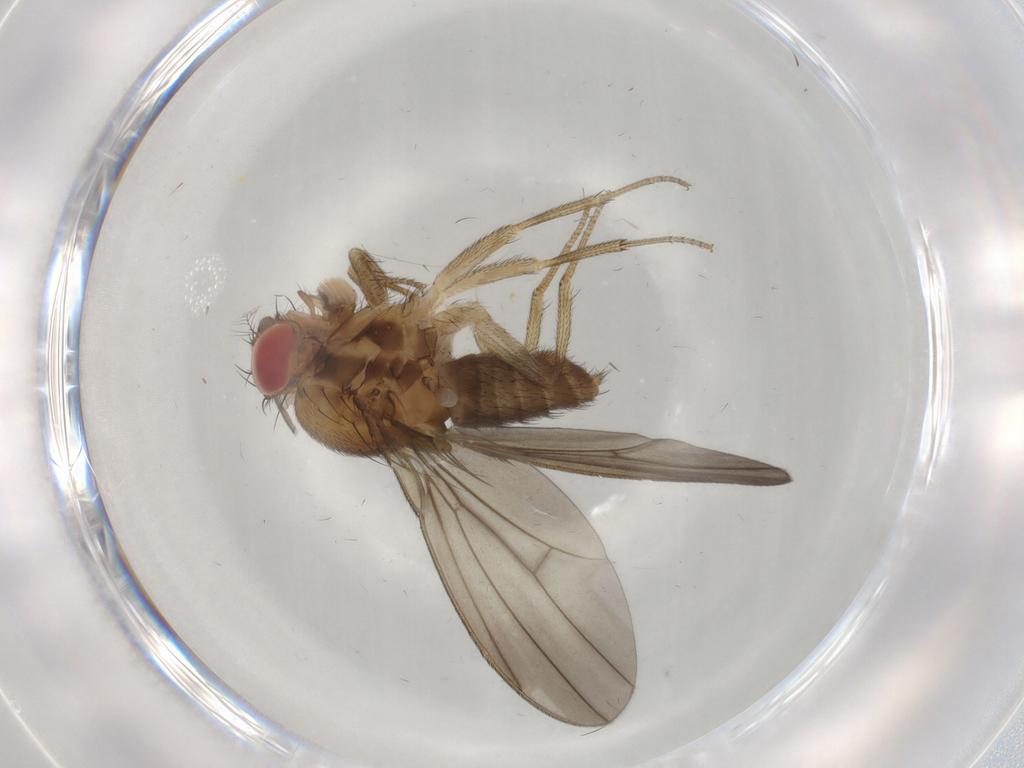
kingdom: Animalia
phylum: Arthropoda
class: Insecta
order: Diptera
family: Drosophilidae
